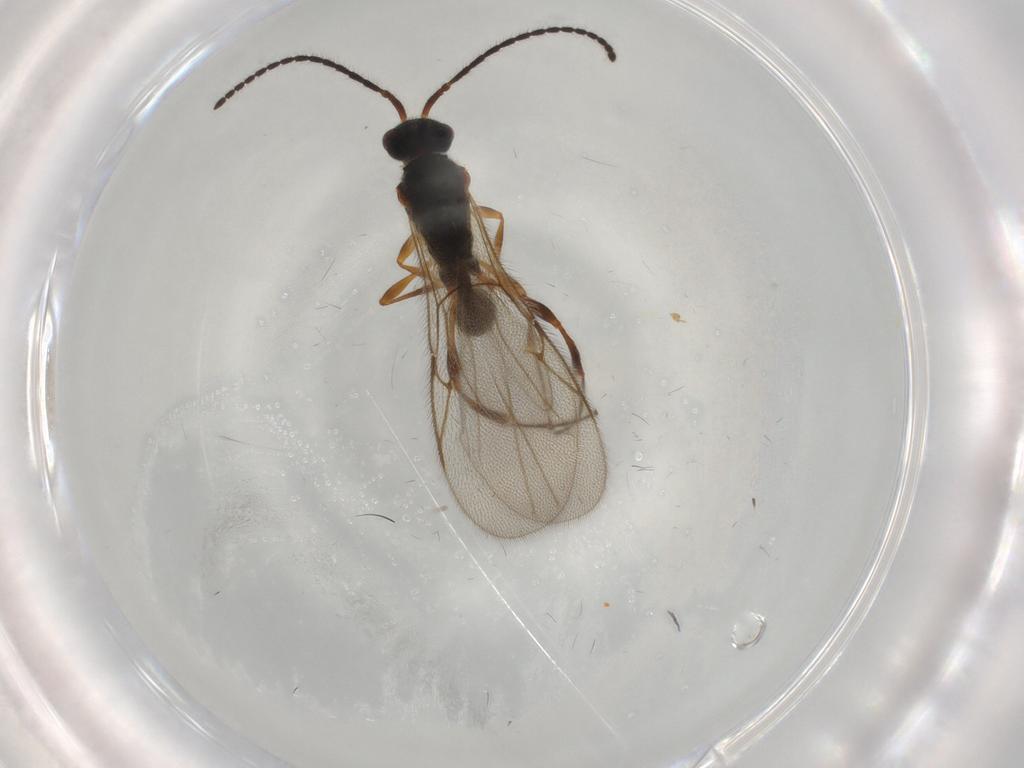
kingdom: Animalia
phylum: Arthropoda
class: Insecta
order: Hymenoptera
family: Diapriidae
